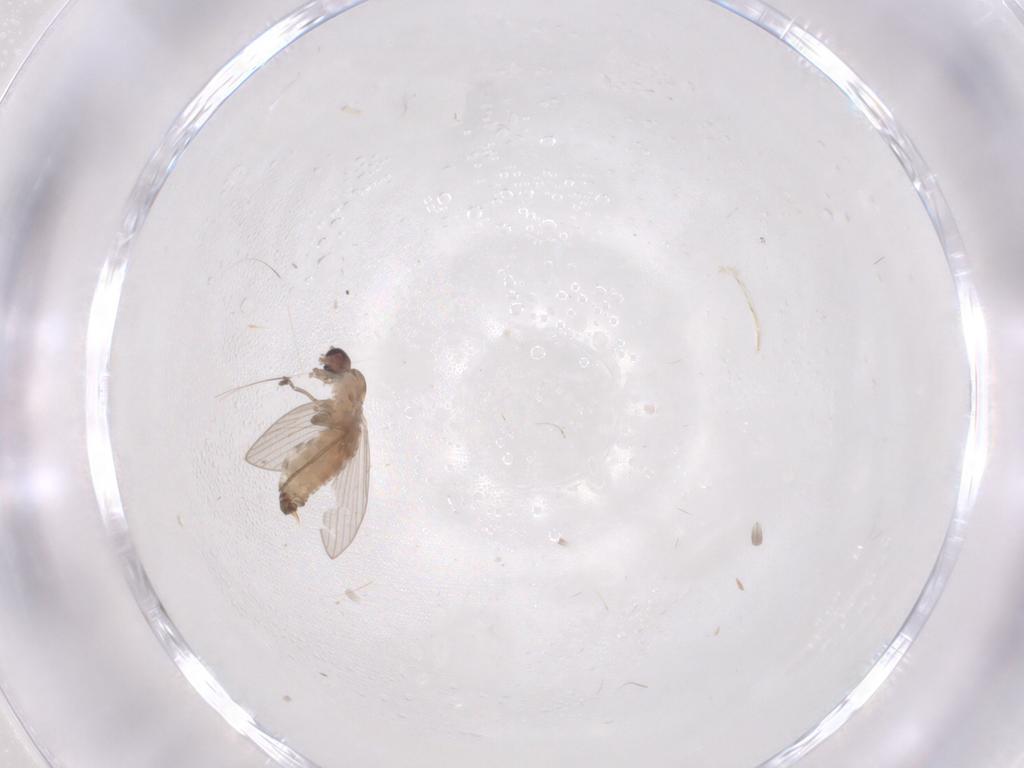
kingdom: Animalia
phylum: Arthropoda
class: Insecta
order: Diptera
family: Psychodidae
